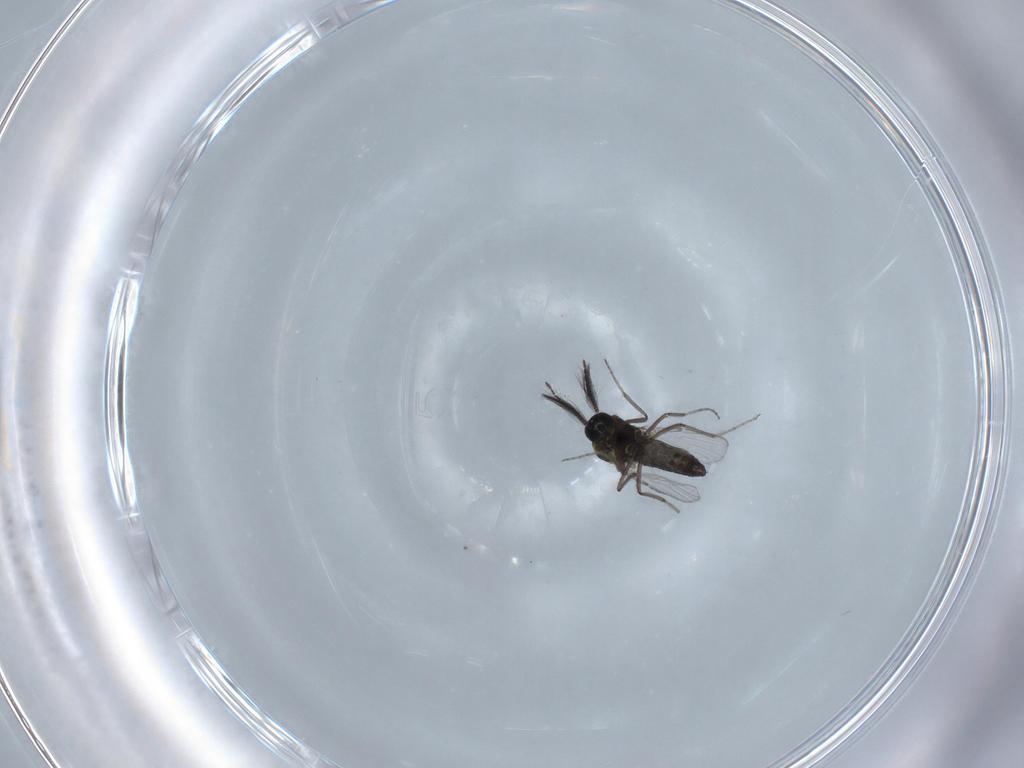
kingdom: Animalia
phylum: Arthropoda
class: Insecta
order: Diptera
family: Ceratopogonidae
